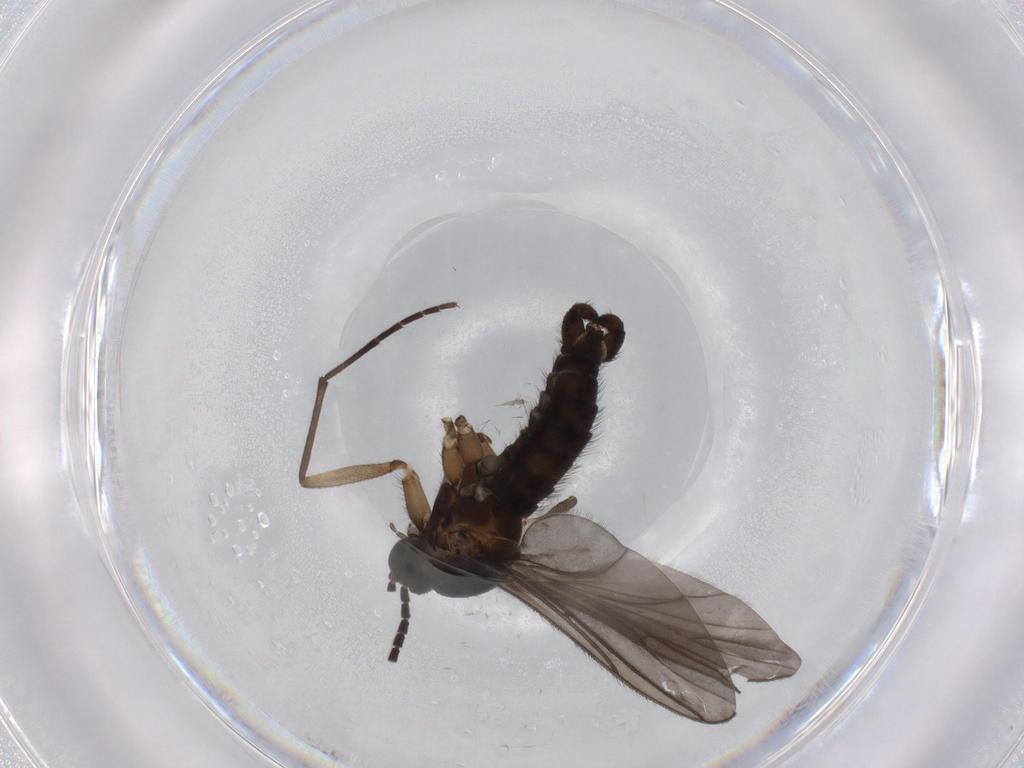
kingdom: Animalia
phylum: Arthropoda
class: Insecta
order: Diptera
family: Sciaridae
